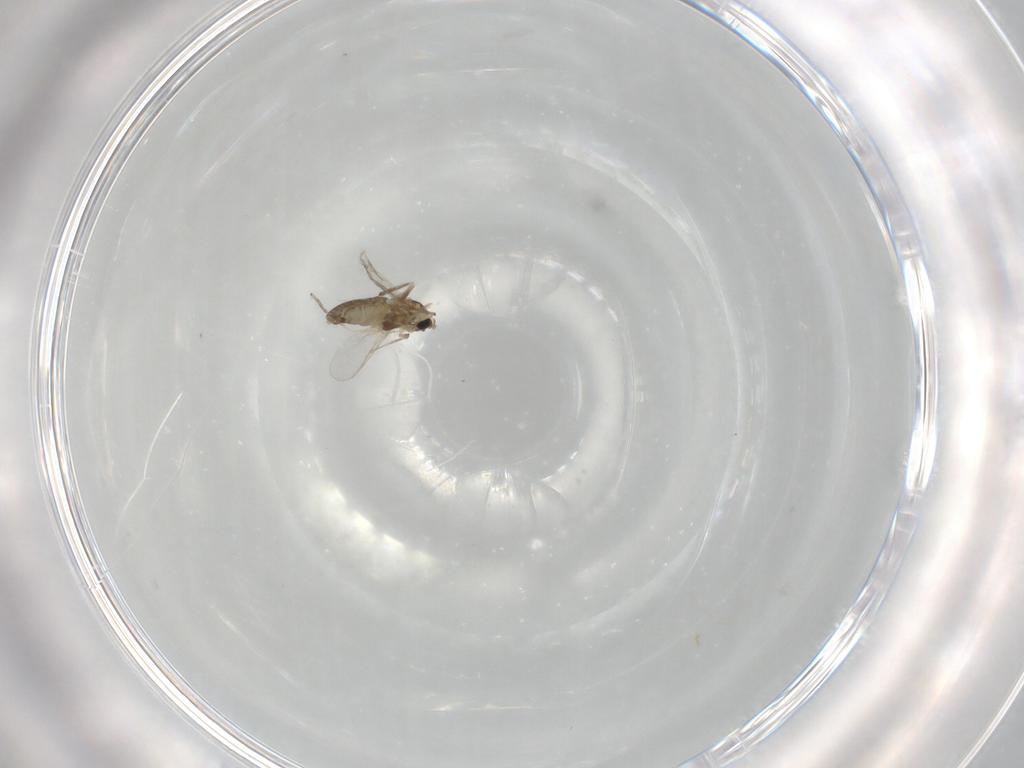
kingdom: Animalia
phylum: Arthropoda
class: Insecta
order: Diptera
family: Chironomidae
